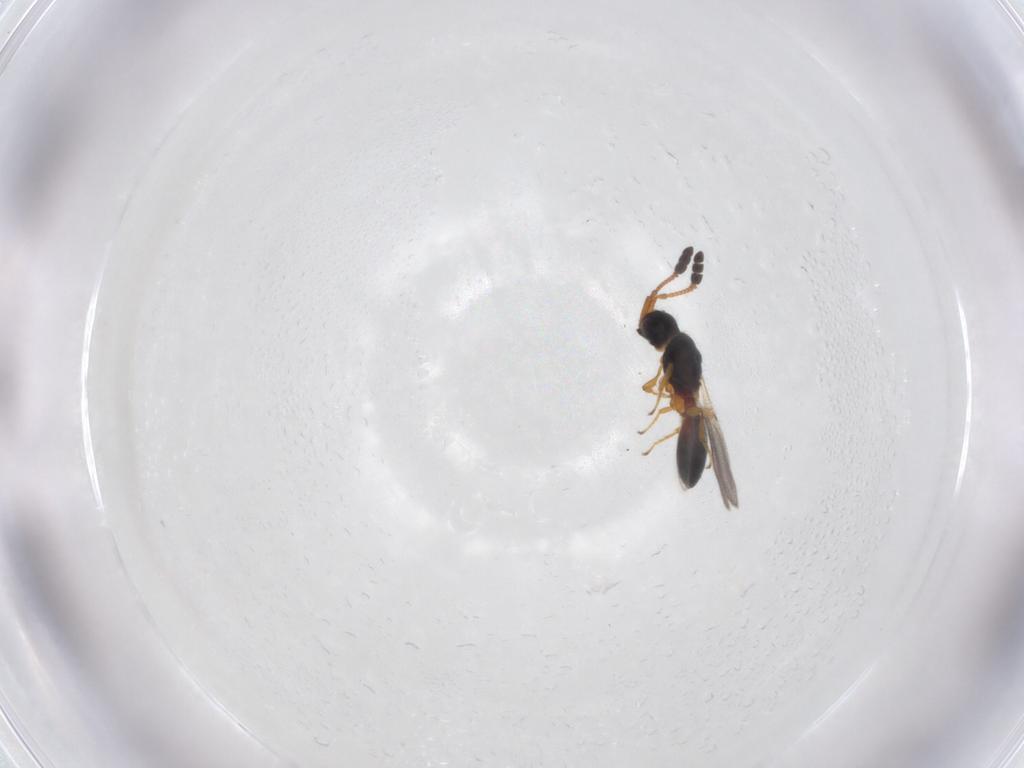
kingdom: Animalia
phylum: Arthropoda
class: Insecta
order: Hymenoptera
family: Diapriidae
